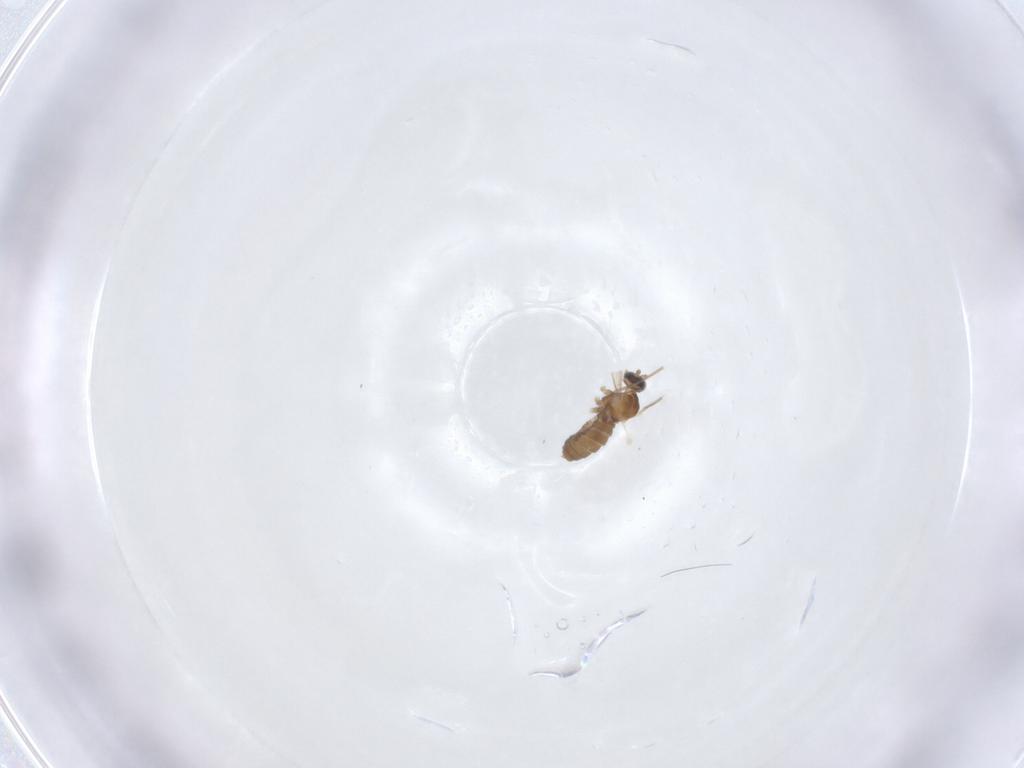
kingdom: Animalia
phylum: Arthropoda
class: Insecta
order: Diptera
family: Cecidomyiidae
